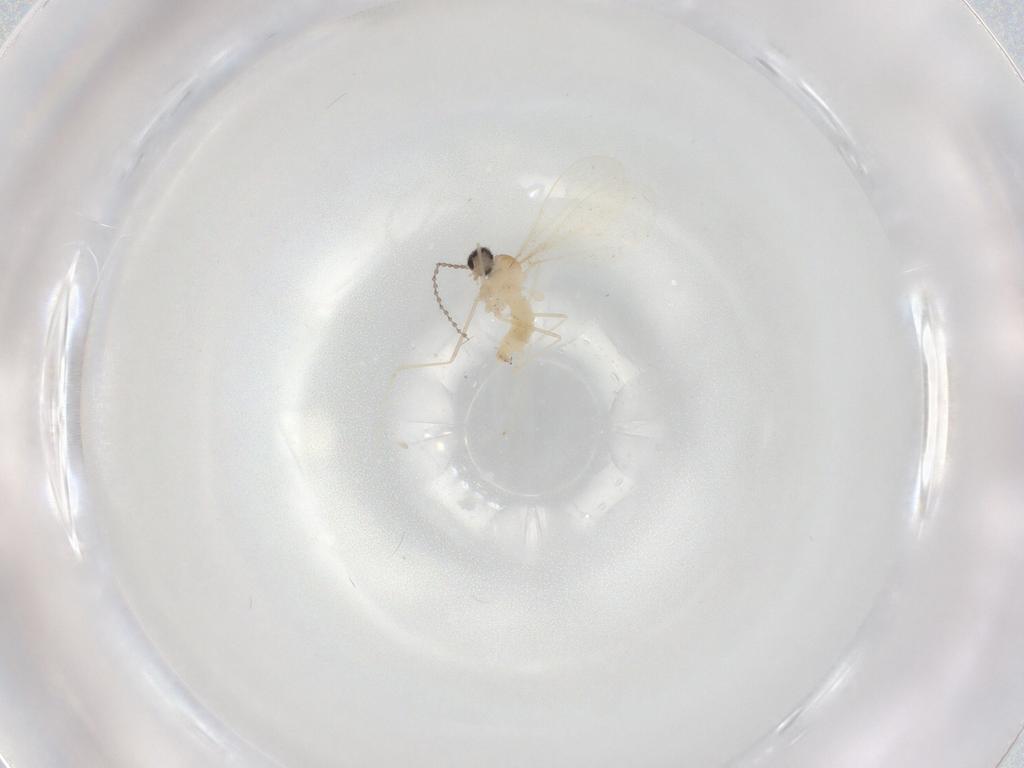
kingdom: Animalia
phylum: Arthropoda
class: Insecta
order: Diptera
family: Cecidomyiidae
